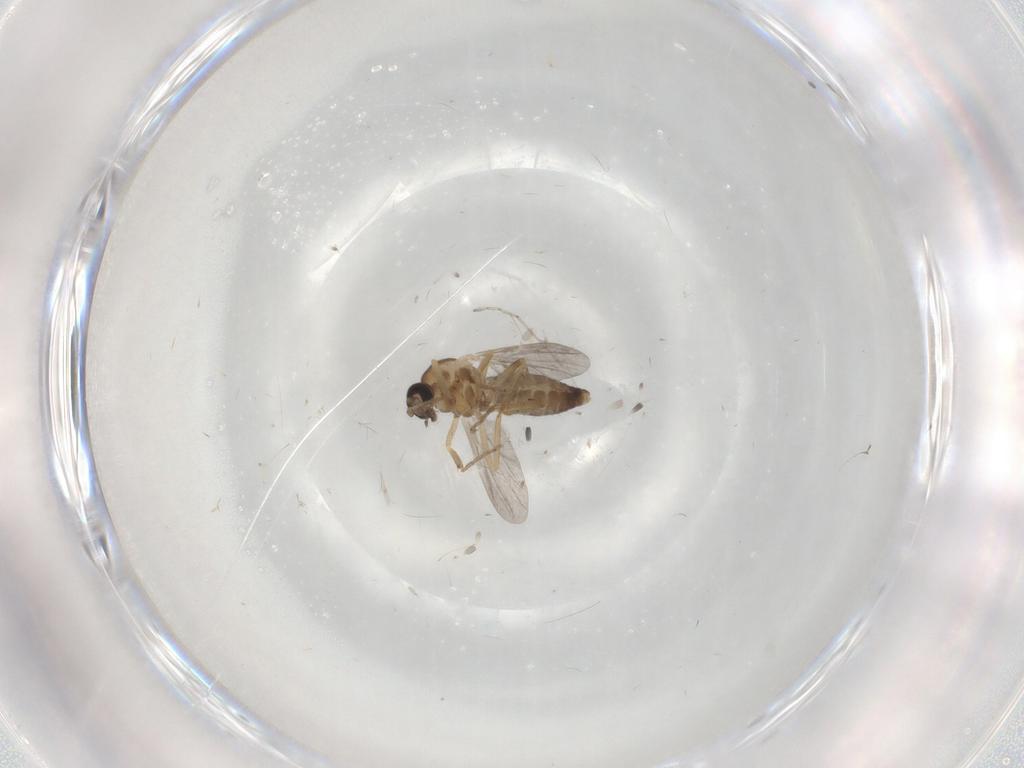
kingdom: Animalia
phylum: Arthropoda
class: Insecta
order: Diptera
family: Ceratopogonidae
